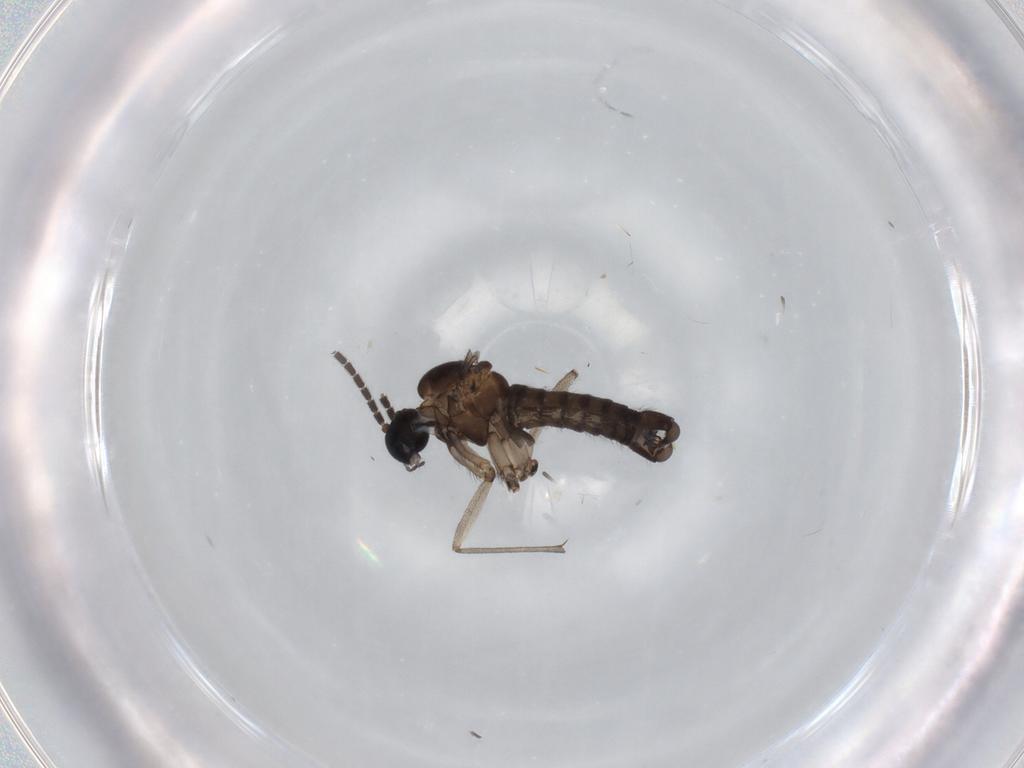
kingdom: Animalia
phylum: Arthropoda
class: Insecta
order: Diptera
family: Sciaridae
